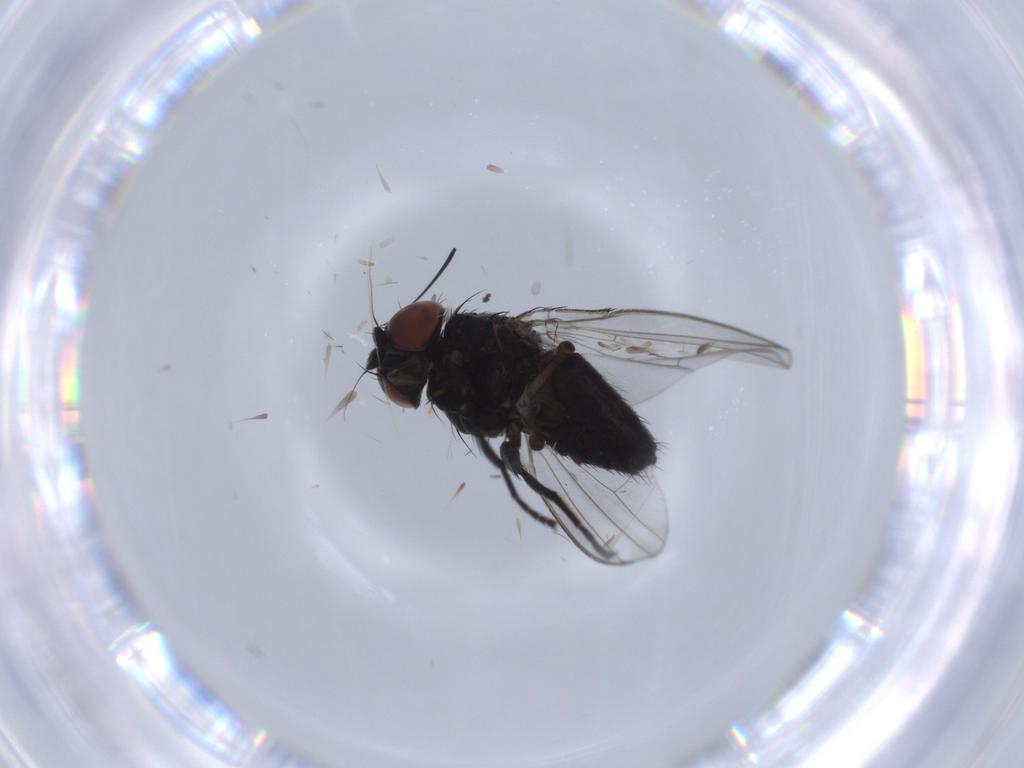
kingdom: Animalia
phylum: Arthropoda
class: Insecta
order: Diptera
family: Milichiidae
